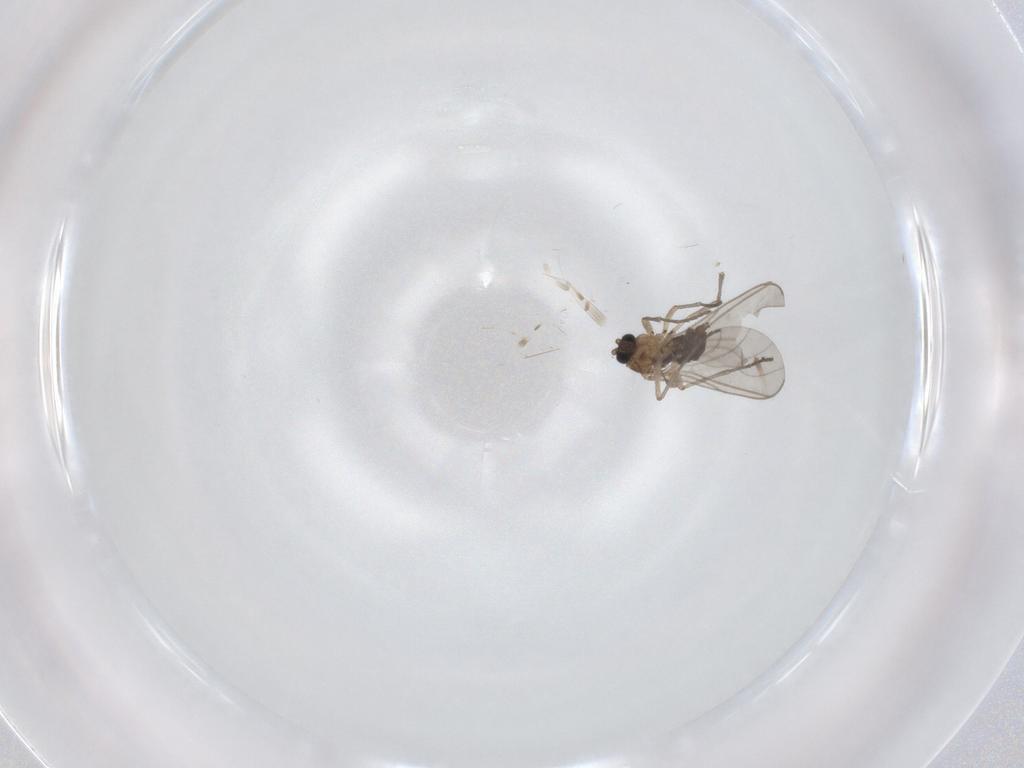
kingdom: Animalia
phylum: Arthropoda
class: Insecta
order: Diptera
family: Sciaridae
